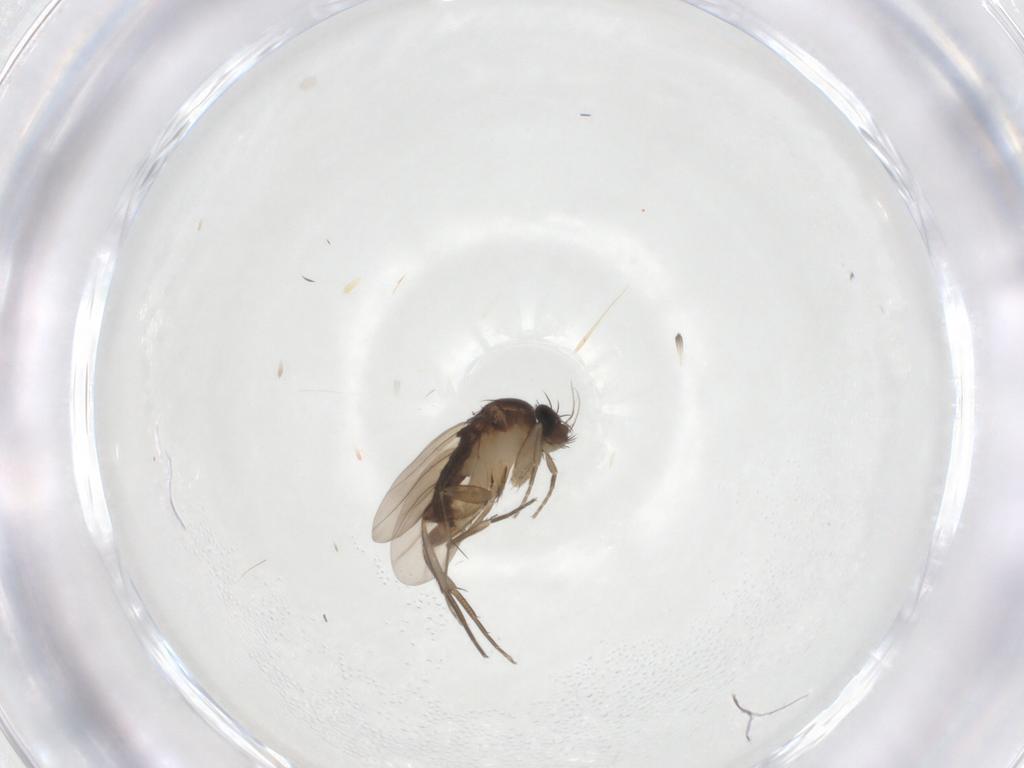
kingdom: Animalia
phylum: Arthropoda
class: Insecta
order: Diptera
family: Phoridae
